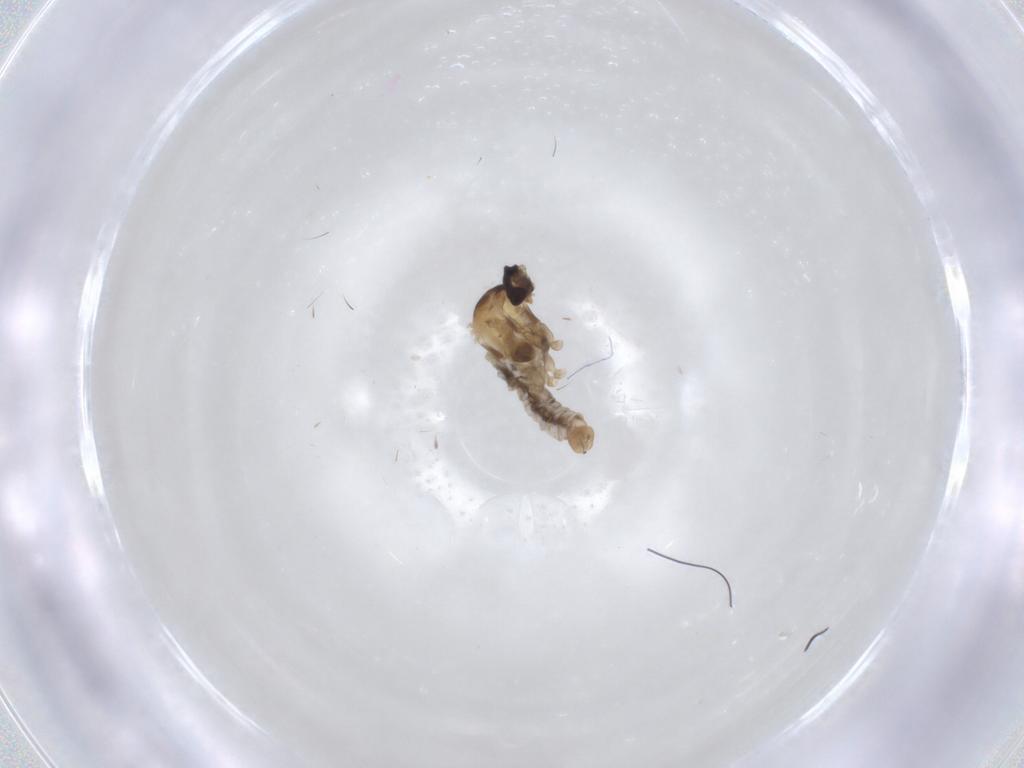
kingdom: Animalia
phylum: Arthropoda
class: Insecta
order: Diptera
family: Cecidomyiidae
